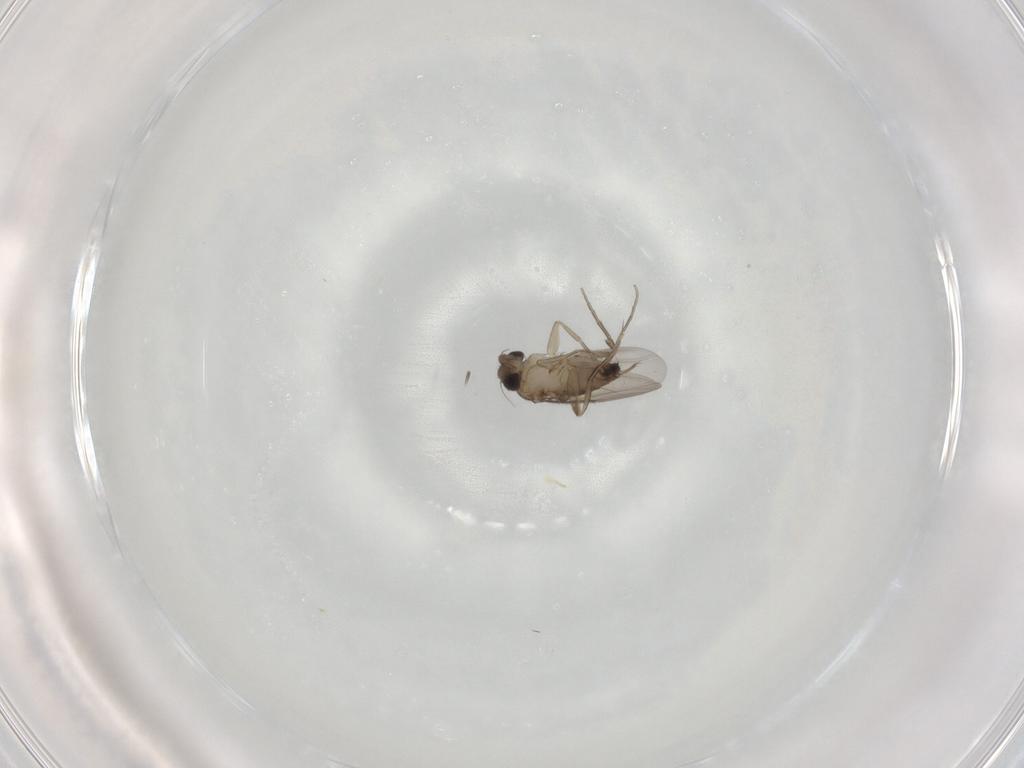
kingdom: Animalia
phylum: Arthropoda
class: Insecta
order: Diptera
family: Phoridae
